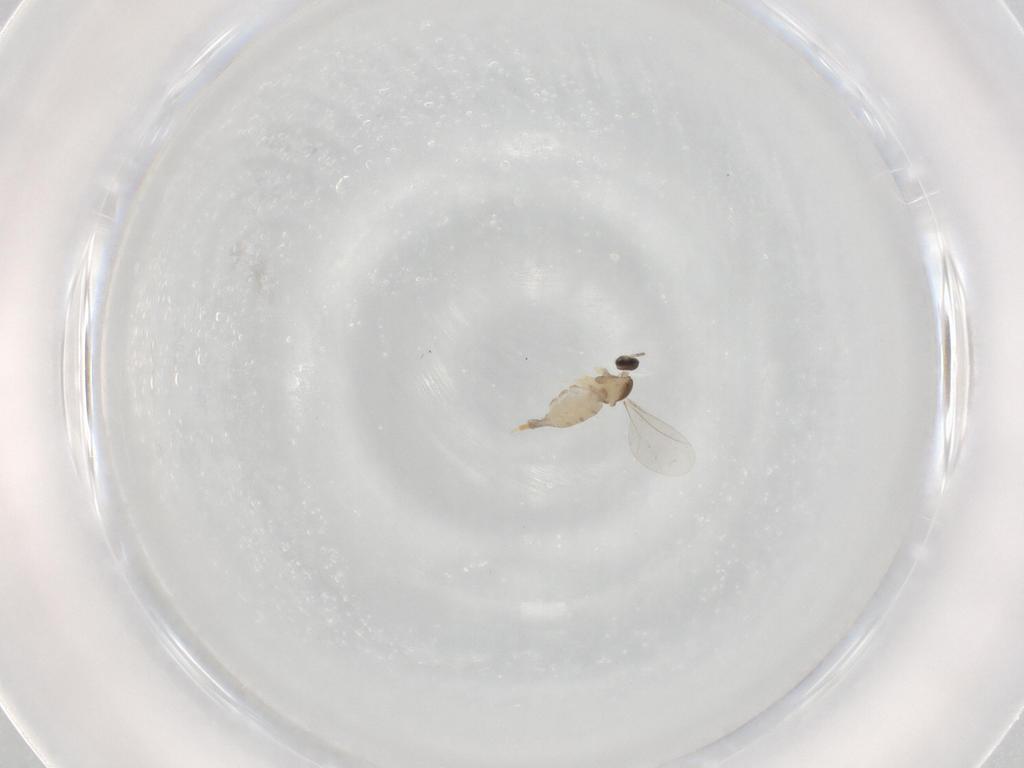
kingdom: Animalia
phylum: Arthropoda
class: Insecta
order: Diptera
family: Cecidomyiidae
